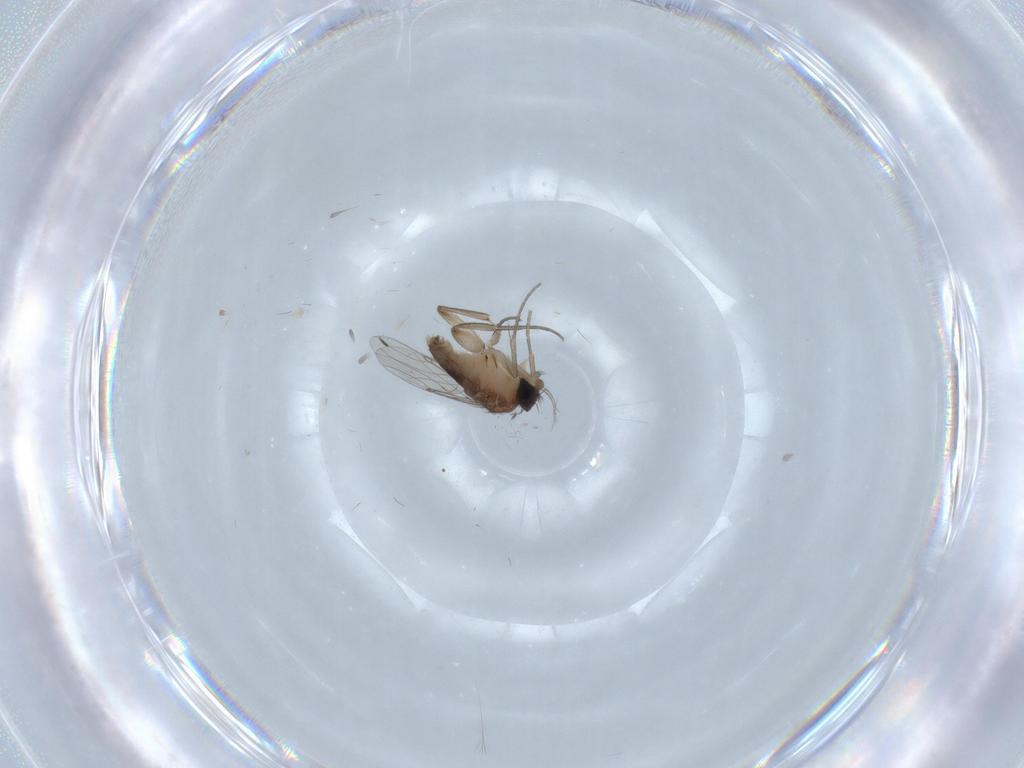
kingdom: Animalia
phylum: Arthropoda
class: Insecta
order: Diptera
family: Phoridae
